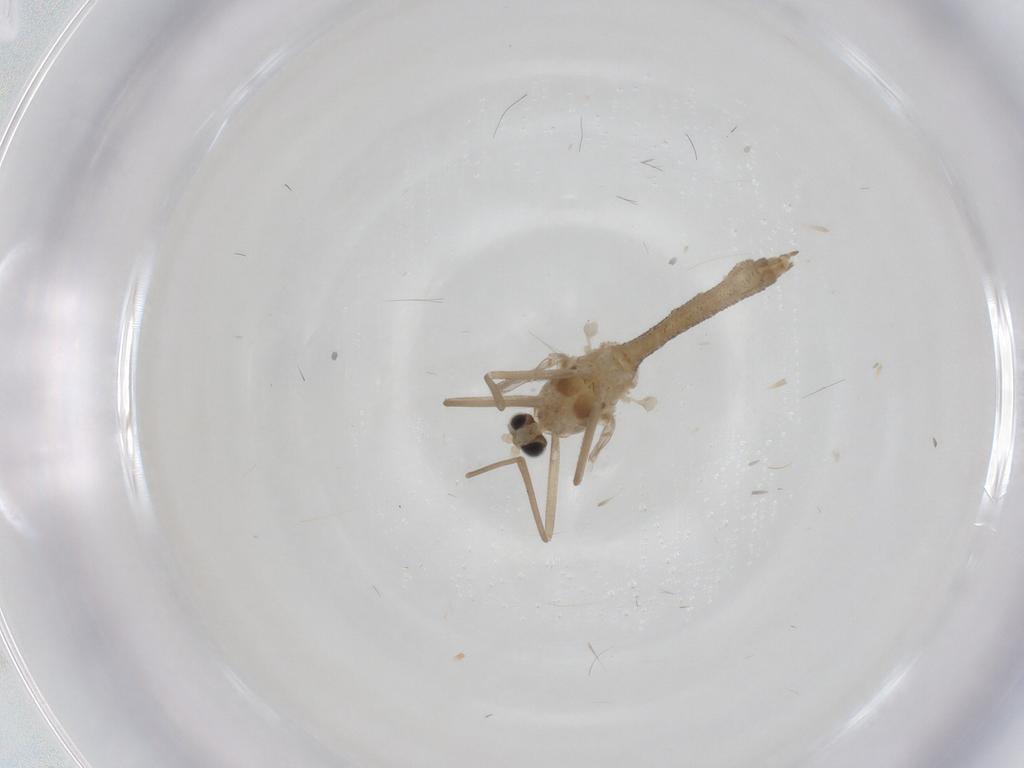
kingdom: Animalia
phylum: Arthropoda
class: Insecta
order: Diptera
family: Cecidomyiidae
